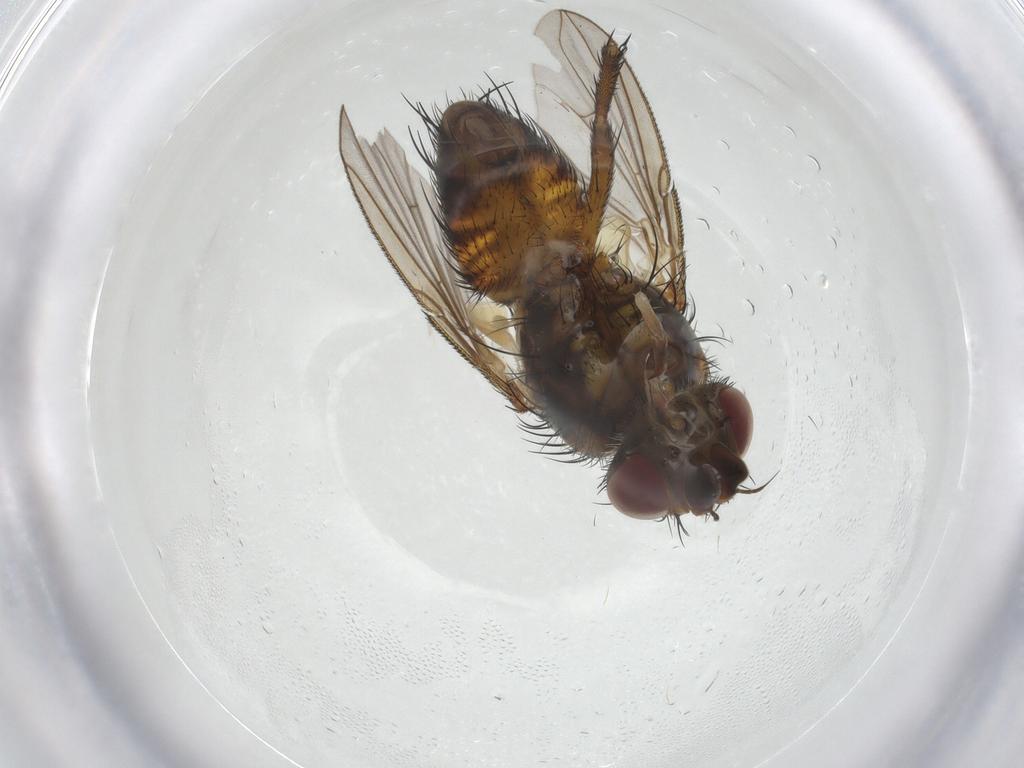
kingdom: Animalia
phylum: Arthropoda
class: Insecta
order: Diptera
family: Tachinidae
